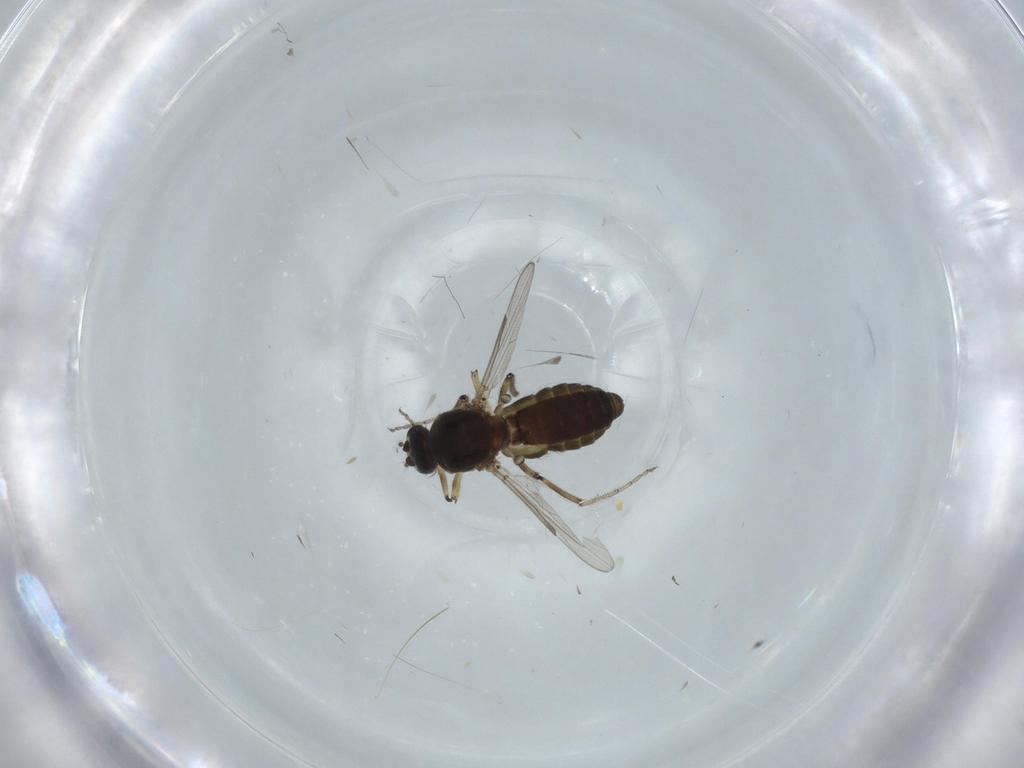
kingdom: Animalia
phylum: Arthropoda
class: Insecta
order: Diptera
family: Ceratopogonidae
